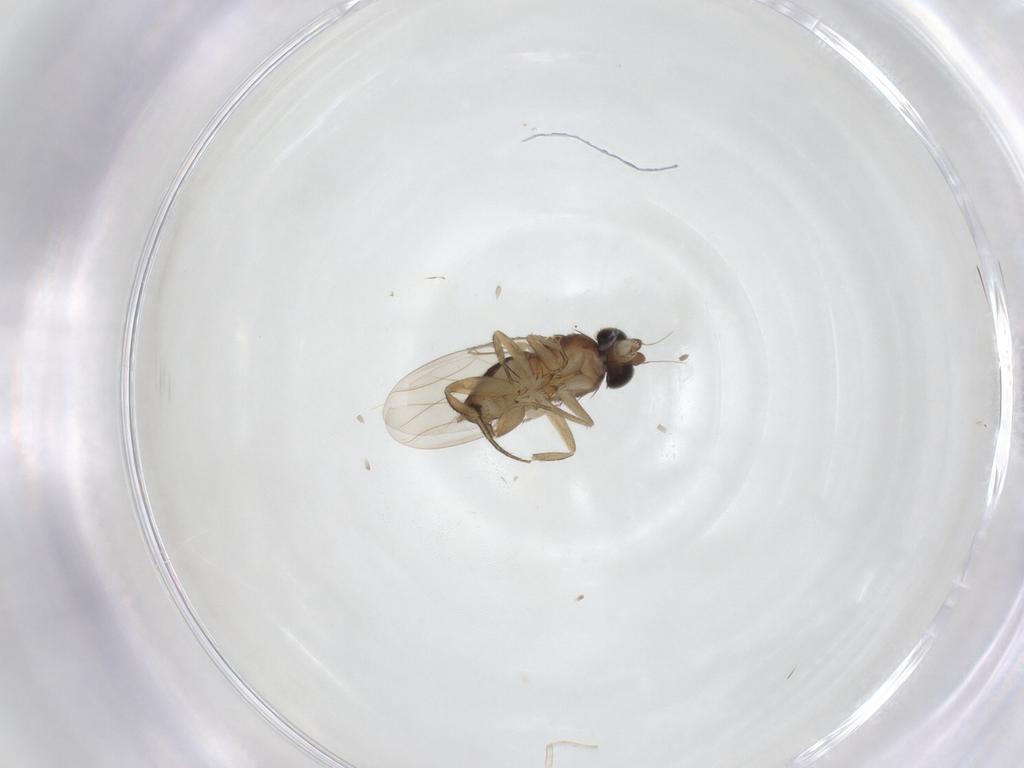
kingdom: Animalia
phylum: Arthropoda
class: Insecta
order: Diptera
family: Phoridae
